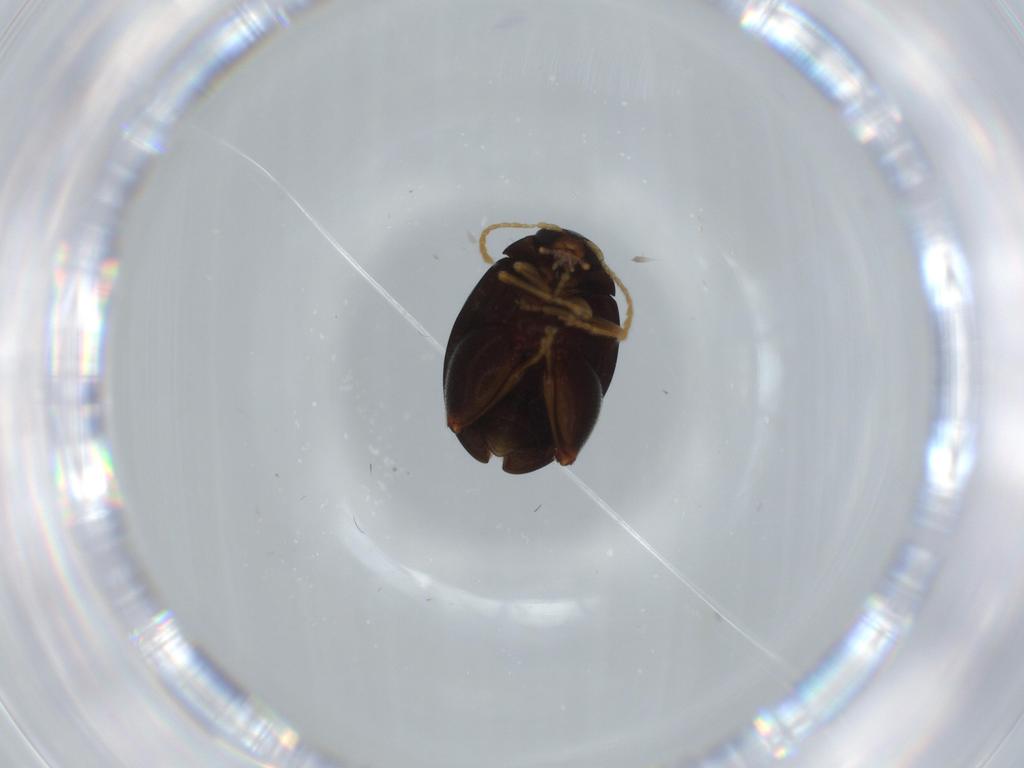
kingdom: Animalia
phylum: Arthropoda
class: Insecta
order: Coleoptera
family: Chrysomelidae
